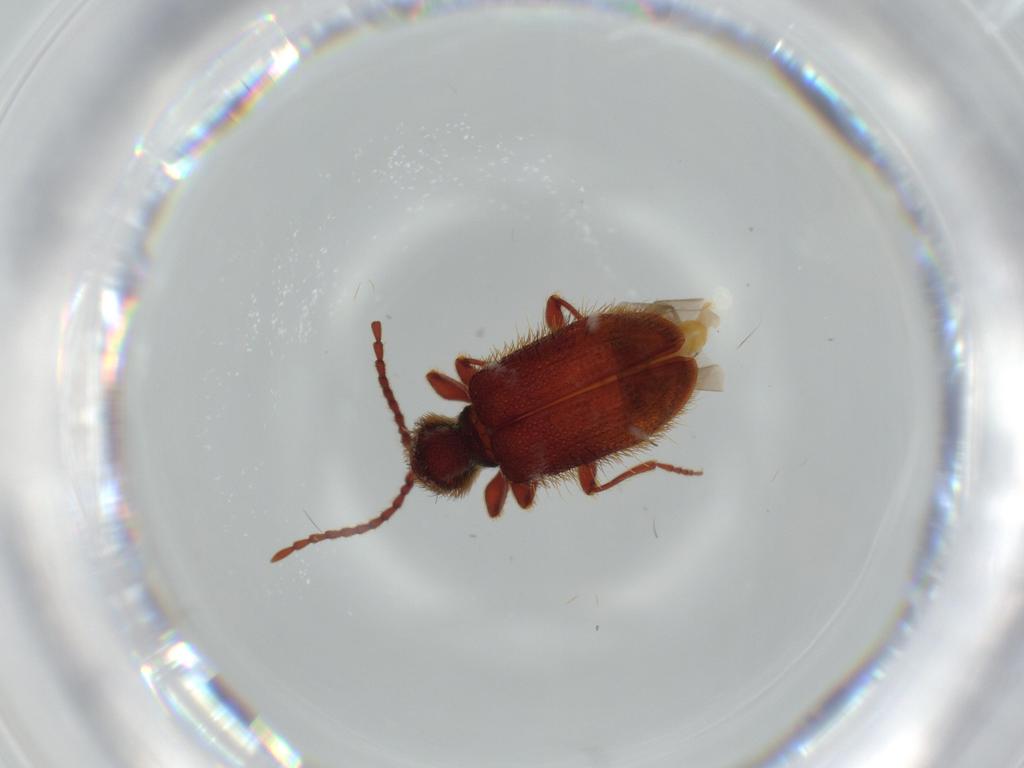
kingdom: Animalia
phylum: Arthropoda
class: Insecta
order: Coleoptera
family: Ptinidae
